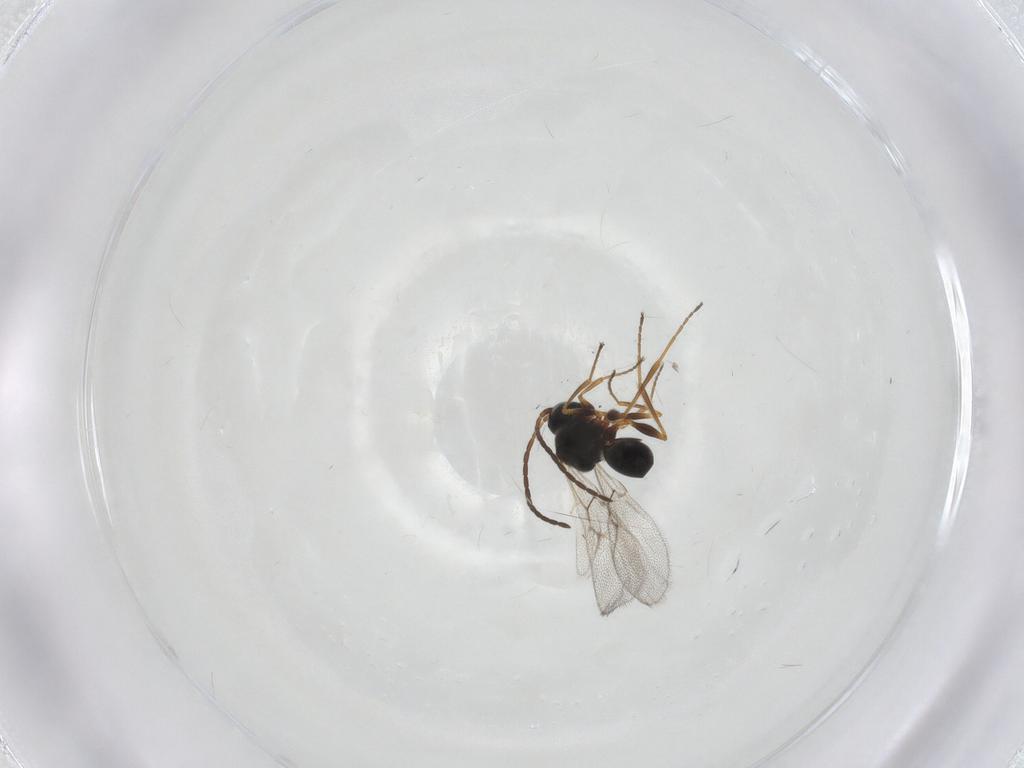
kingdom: Animalia
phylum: Arthropoda
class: Insecta
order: Hymenoptera
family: Figitidae
